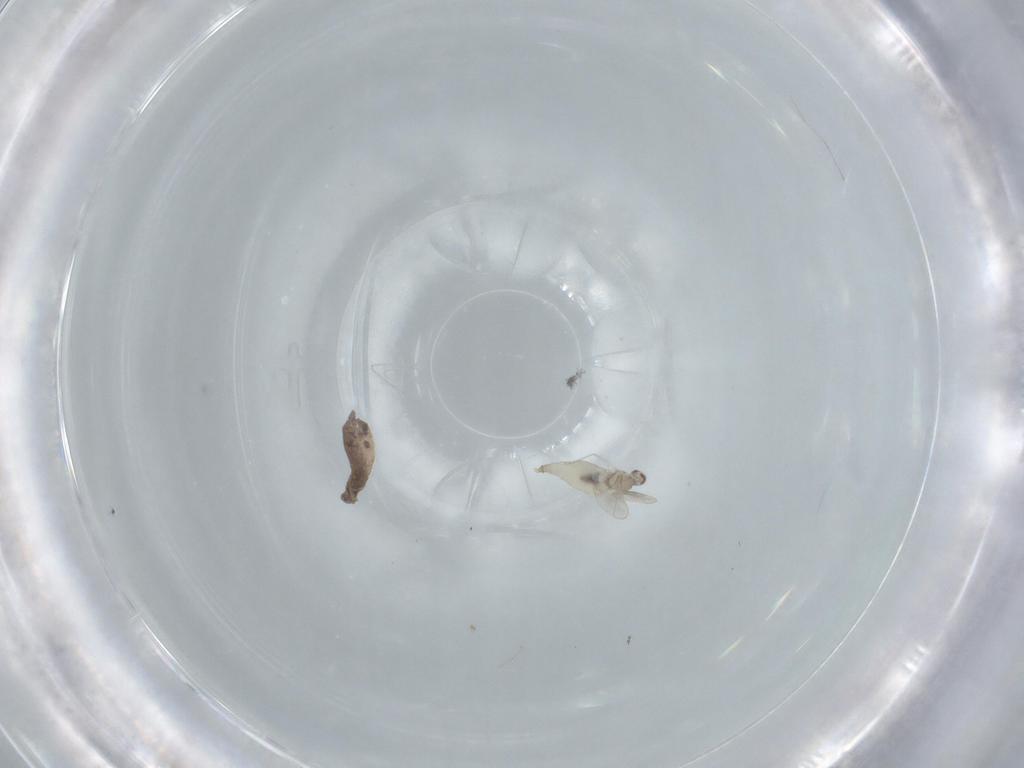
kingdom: Animalia
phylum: Arthropoda
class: Insecta
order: Diptera
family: Cecidomyiidae
